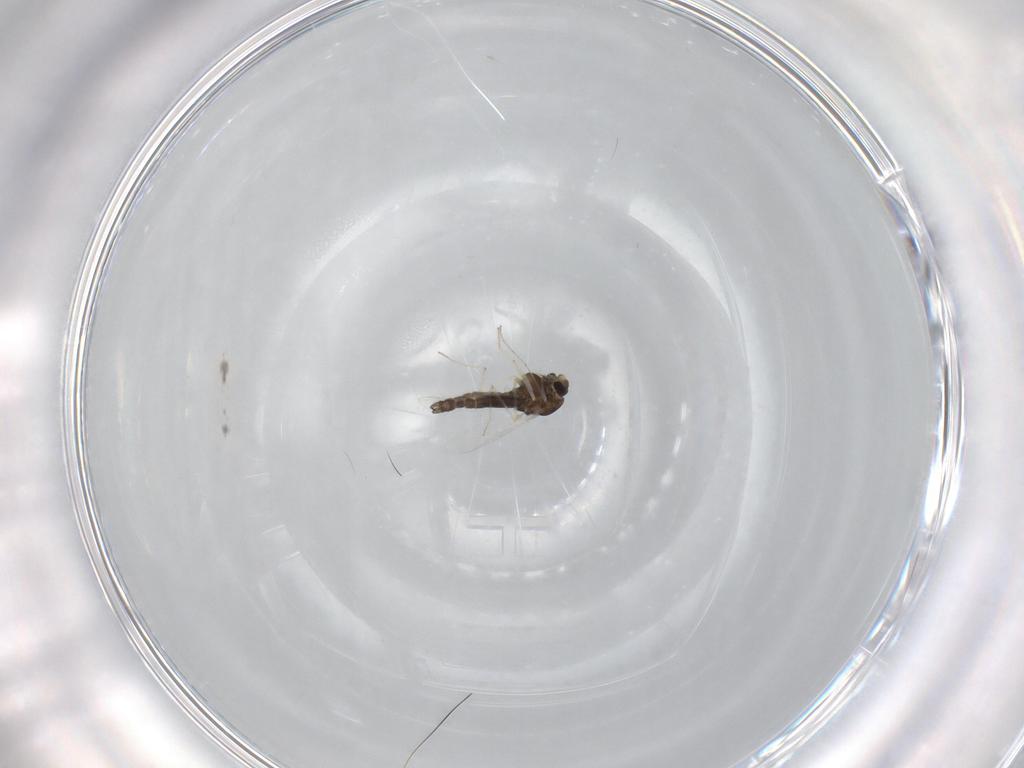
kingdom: Animalia
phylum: Arthropoda
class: Insecta
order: Diptera
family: Chironomidae
